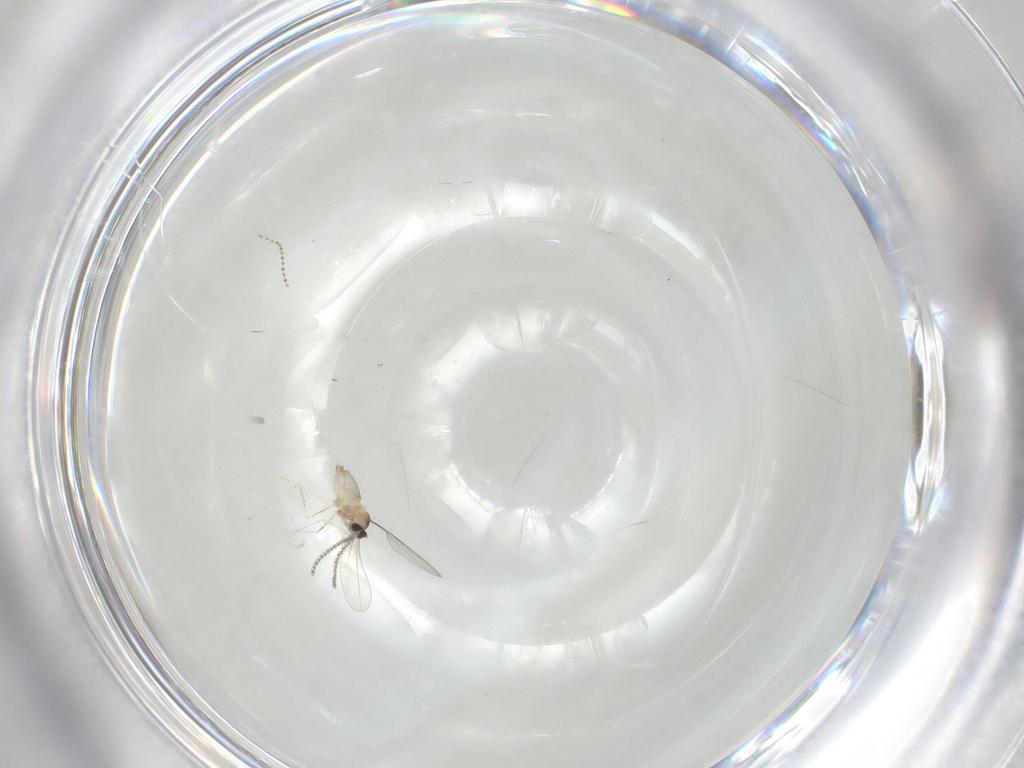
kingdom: Animalia
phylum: Arthropoda
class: Insecta
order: Diptera
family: Cecidomyiidae
